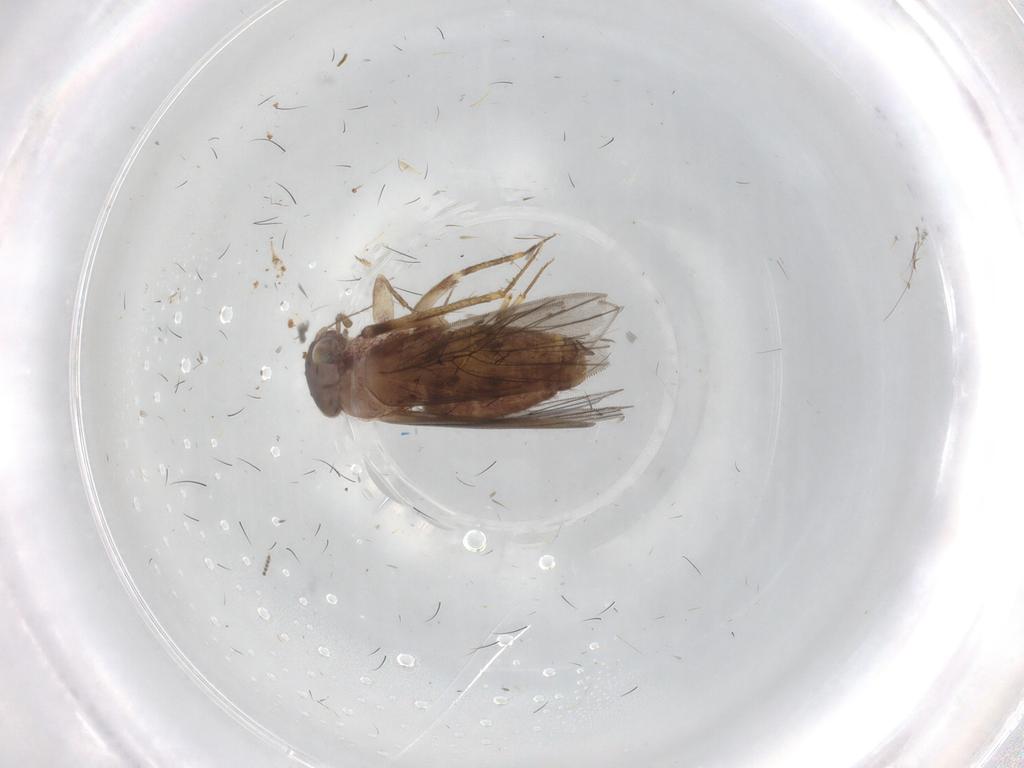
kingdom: Animalia
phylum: Arthropoda
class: Insecta
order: Psocodea
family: Lepidopsocidae
